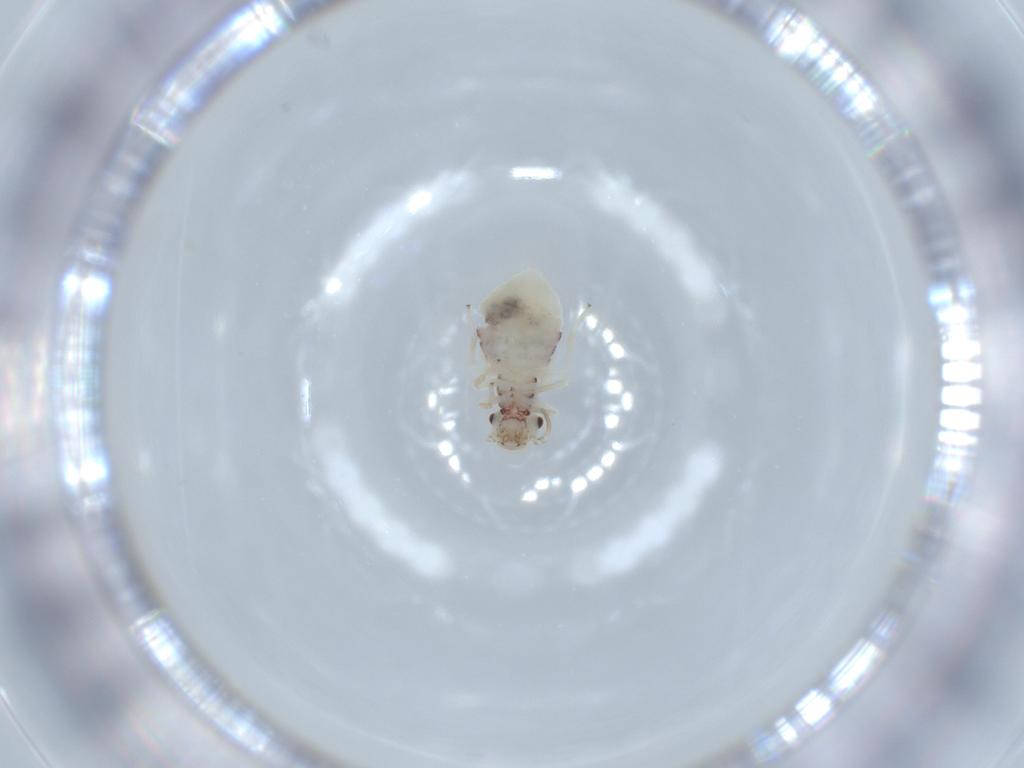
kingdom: Animalia
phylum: Arthropoda
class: Insecta
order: Psocodea
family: Caeciliusidae
